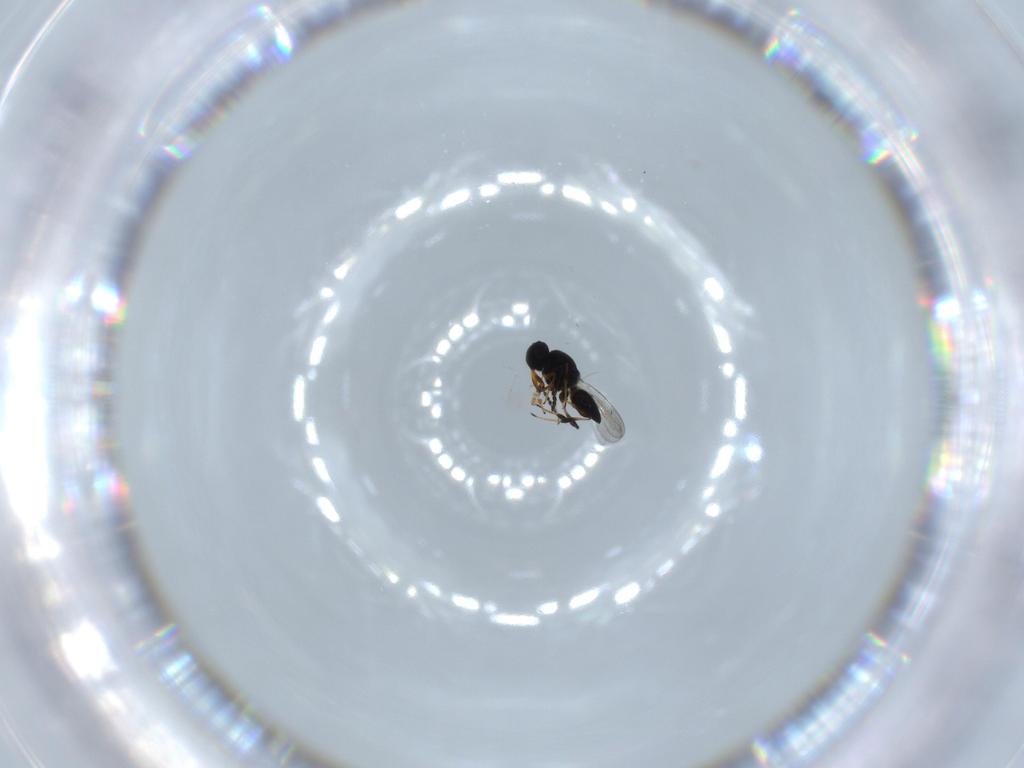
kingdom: Animalia
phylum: Arthropoda
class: Insecta
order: Hymenoptera
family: Platygastridae
